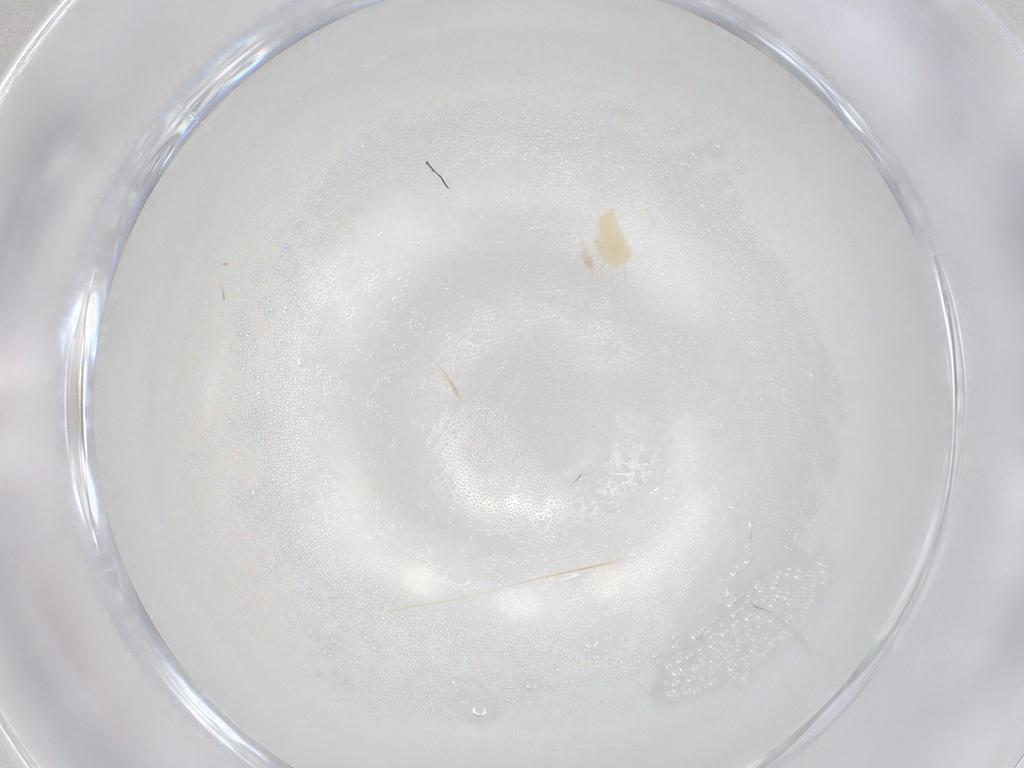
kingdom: Animalia
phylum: Arthropoda
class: Arachnida
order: Trombidiformes
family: Tetranychidae
